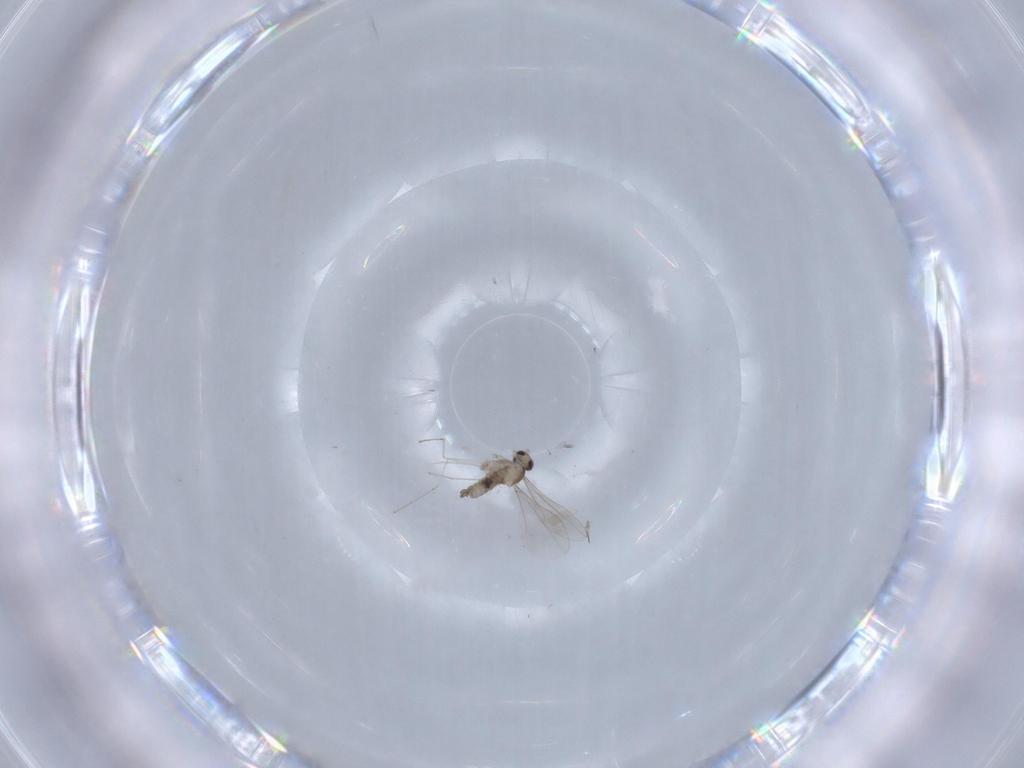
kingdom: Animalia
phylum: Arthropoda
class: Insecta
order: Diptera
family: Cecidomyiidae
